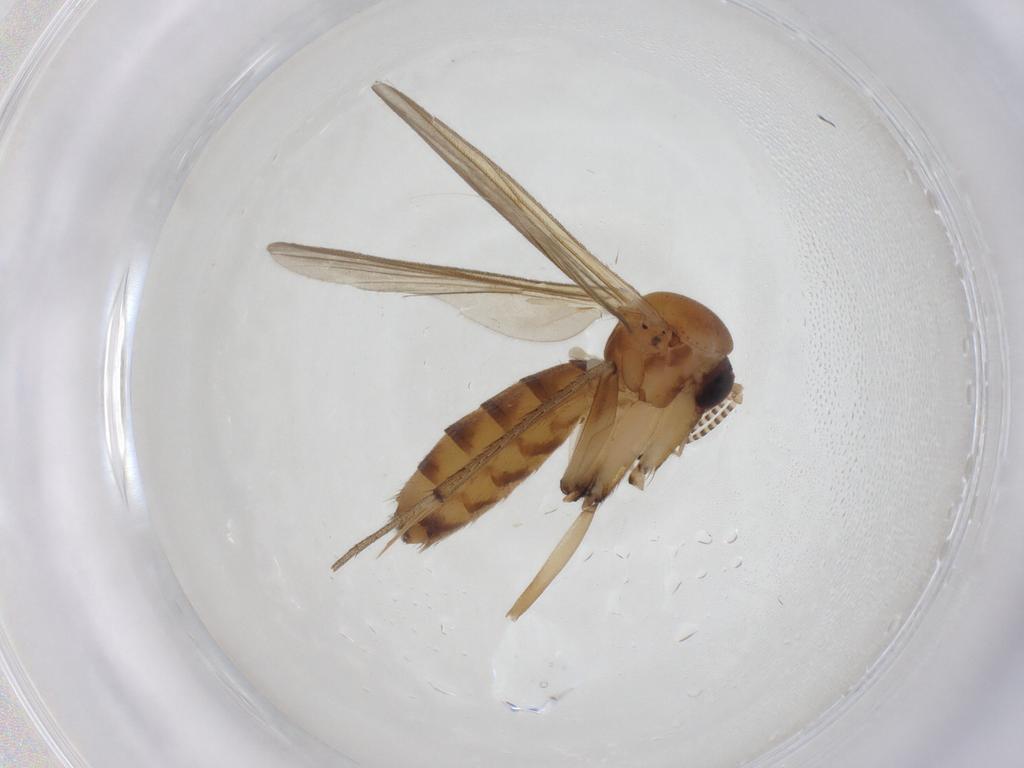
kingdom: Animalia
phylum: Arthropoda
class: Insecta
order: Diptera
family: Mycetophilidae
